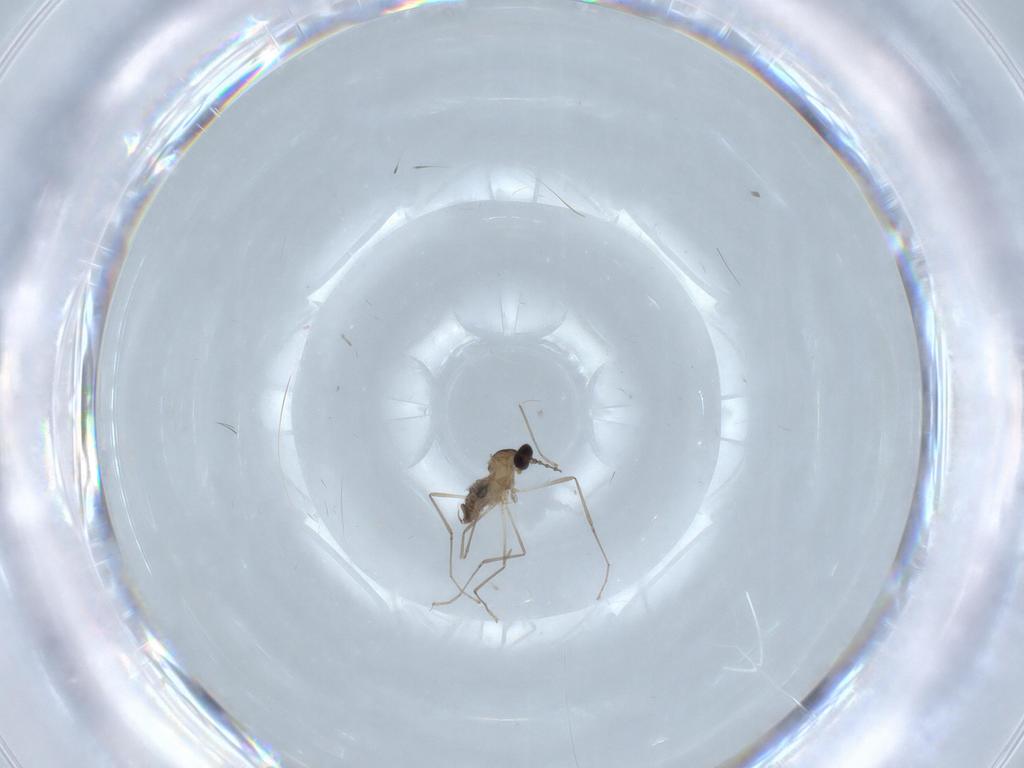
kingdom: Animalia
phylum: Arthropoda
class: Insecta
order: Diptera
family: Cecidomyiidae
